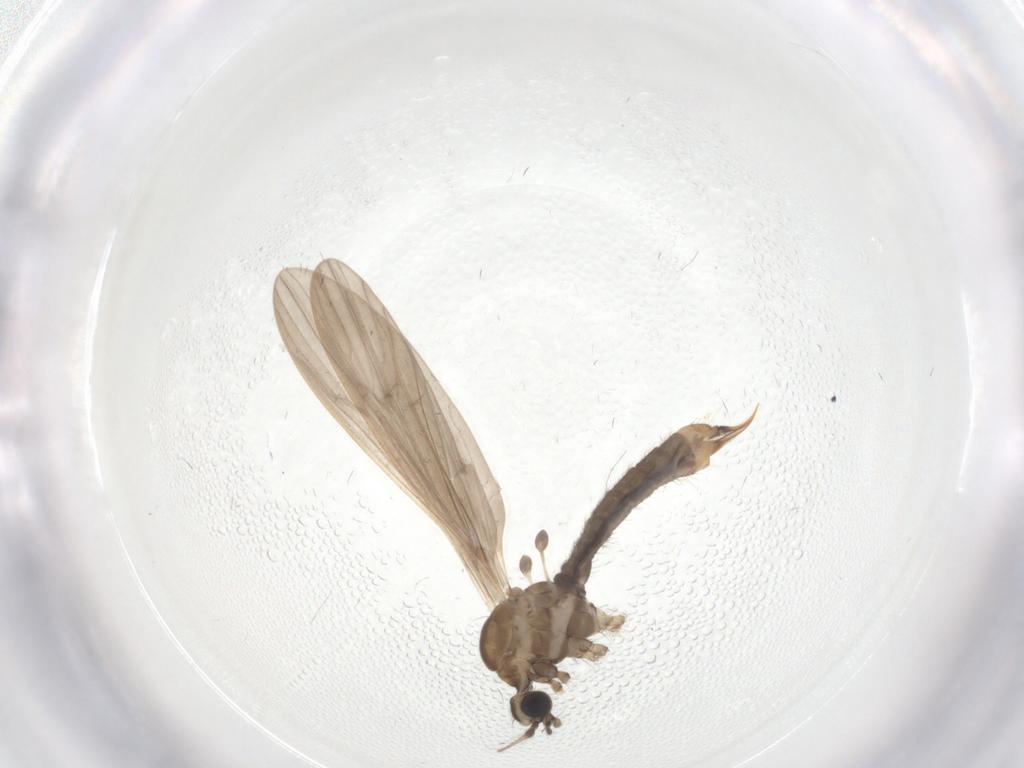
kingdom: Animalia
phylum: Arthropoda
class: Insecta
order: Diptera
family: Limoniidae
